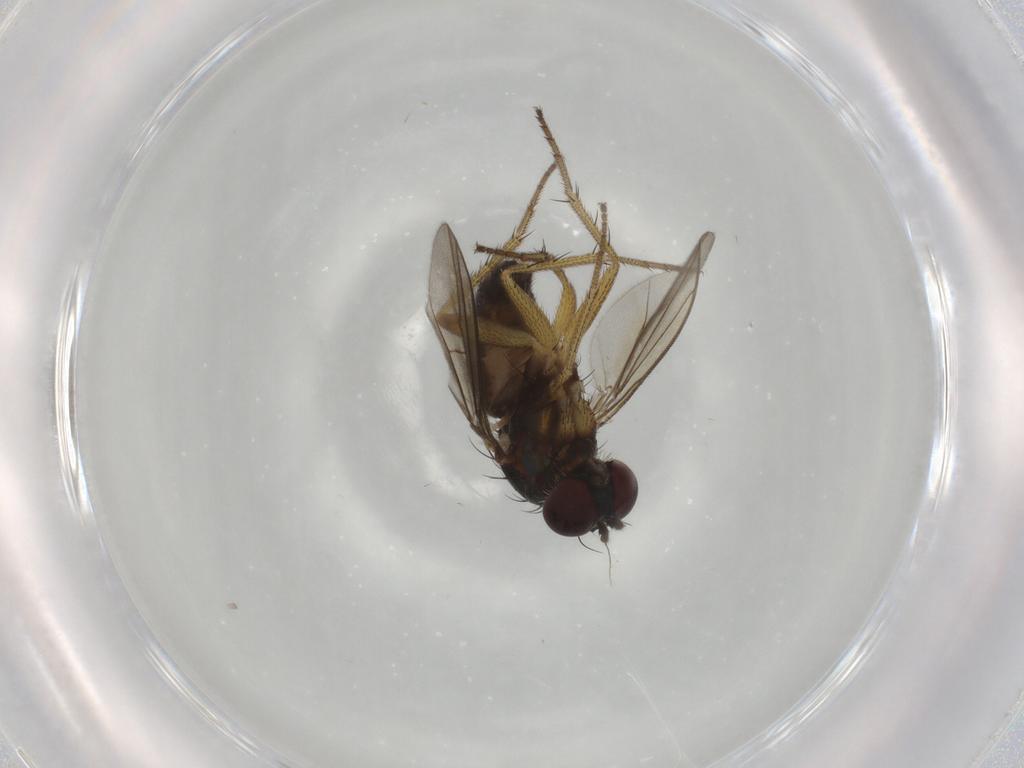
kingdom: Animalia
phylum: Arthropoda
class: Insecta
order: Diptera
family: Dolichopodidae
